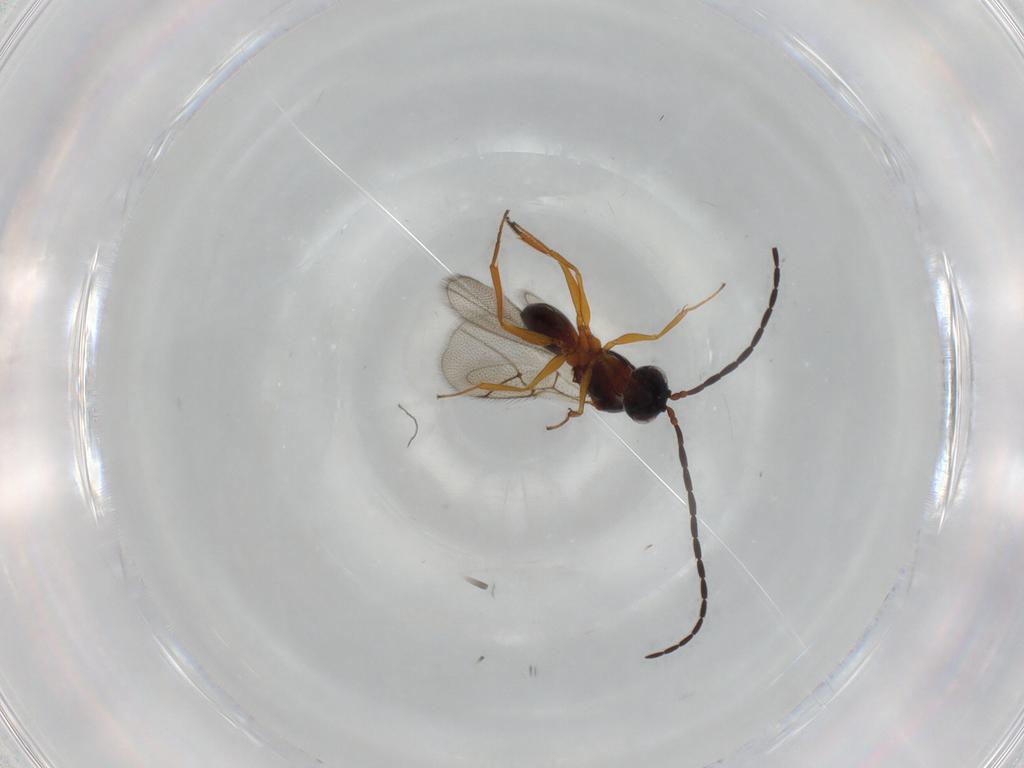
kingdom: Animalia
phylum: Arthropoda
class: Insecta
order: Hymenoptera
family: Figitidae
